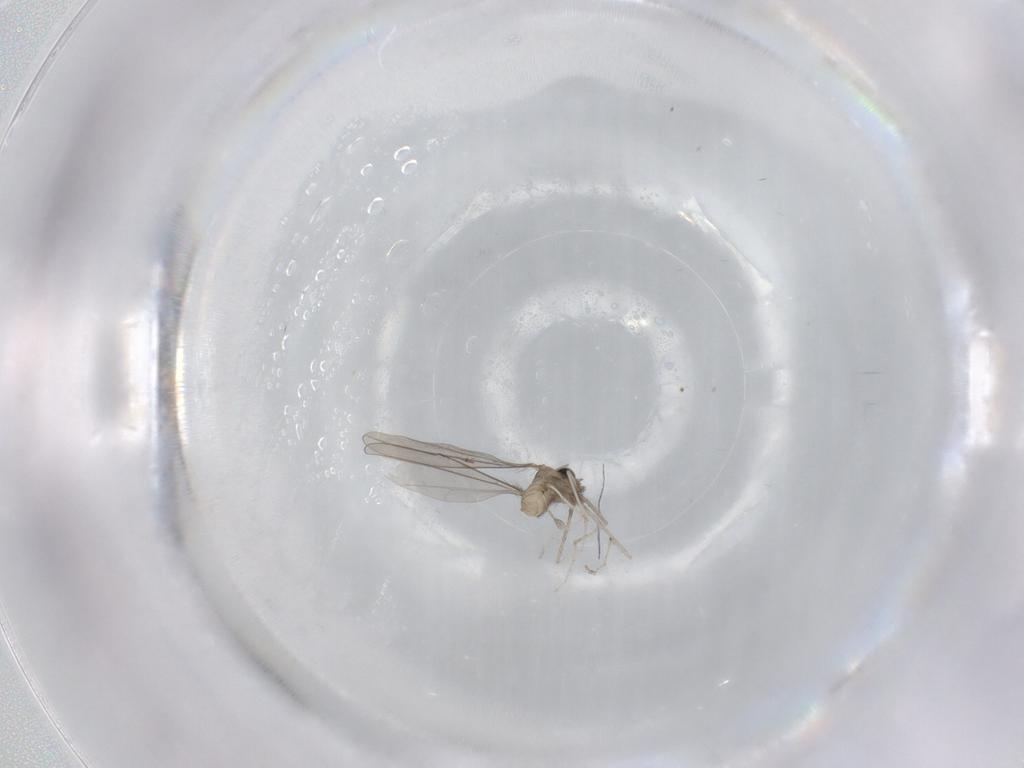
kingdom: Animalia
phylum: Arthropoda
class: Insecta
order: Diptera
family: Cecidomyiidae
